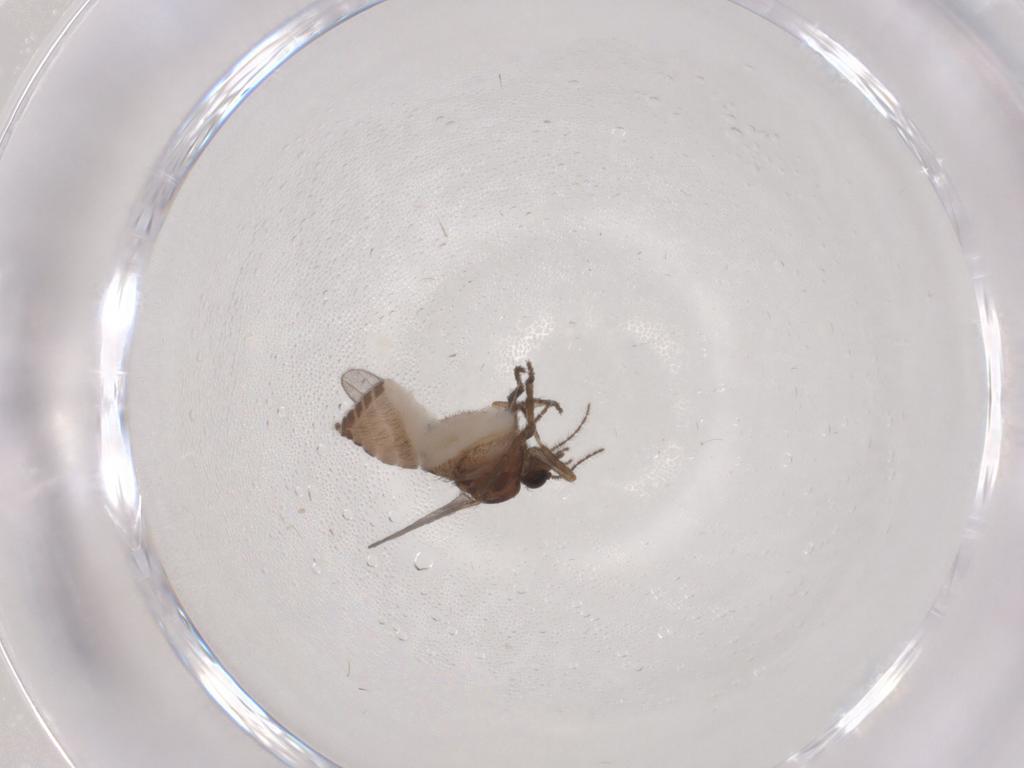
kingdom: Animalia
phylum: Arthropoda
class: Insecta
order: Diptera
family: Ceratopogonidae
